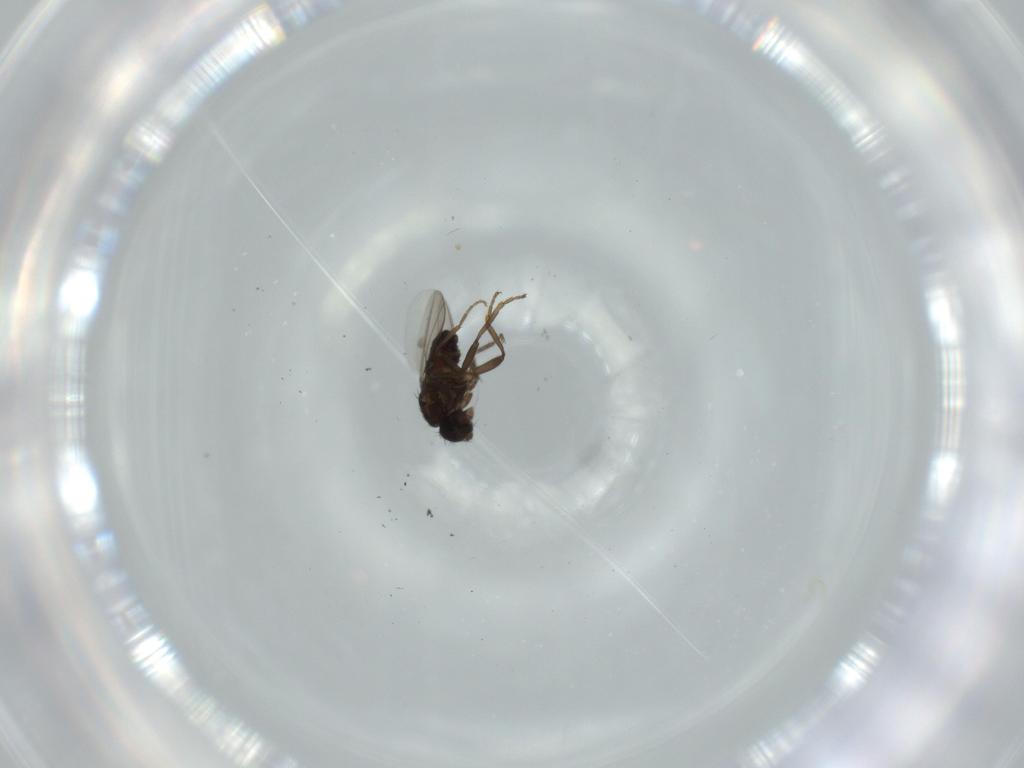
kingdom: Animalia
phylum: Arthropoda
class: Insecta
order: Diptera
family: Sphaeroceridae
